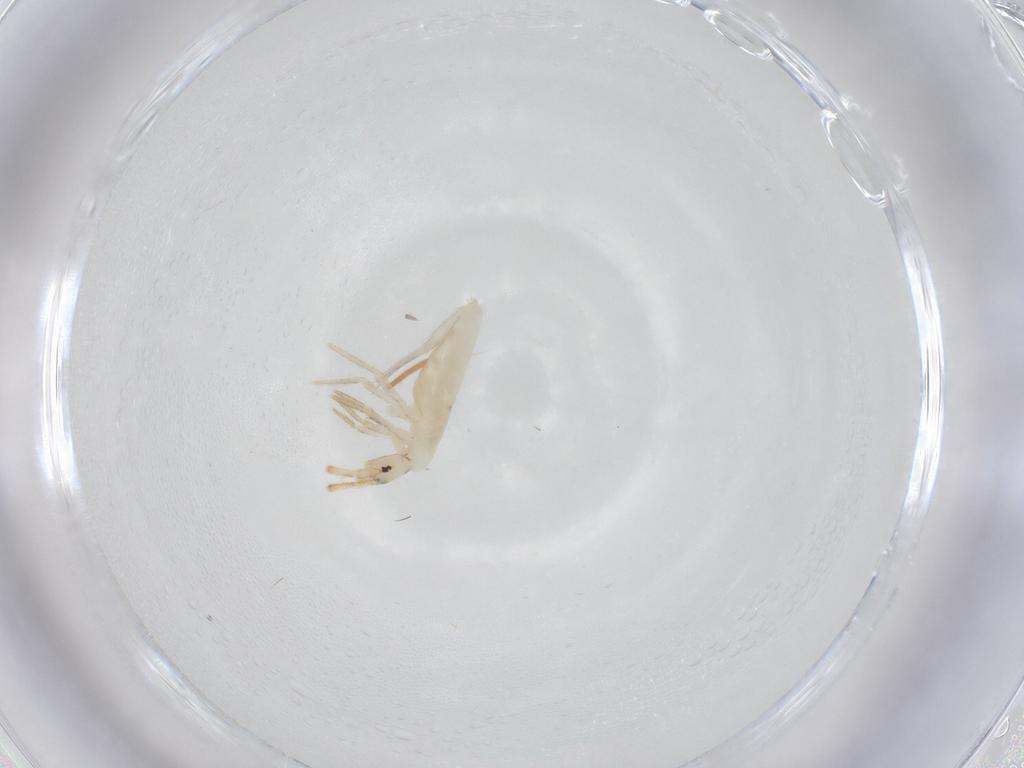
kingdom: Animalia
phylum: Arthropoda
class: Collembola
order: Entomobryomorpha
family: Entomobryidae
